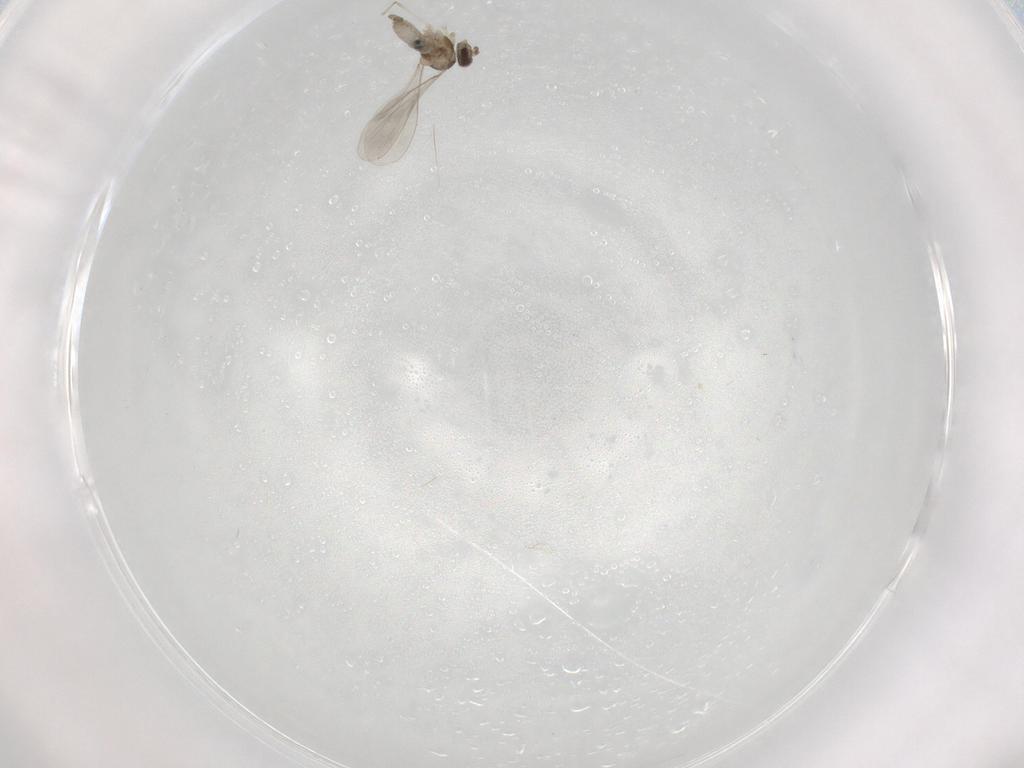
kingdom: Animalia
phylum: Arthropoda
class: Insecta
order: Diptera
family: Cecidomyiidae
